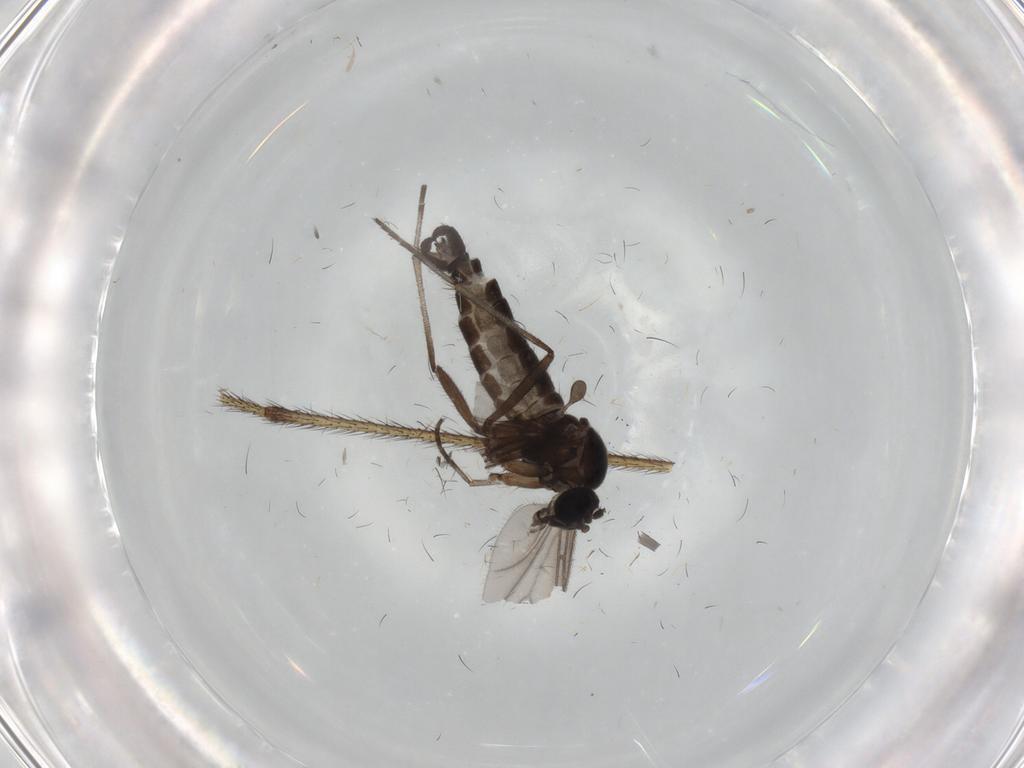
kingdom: Animalia
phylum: Arthropoda
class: Insecta
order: Diptera
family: Sciaridae
